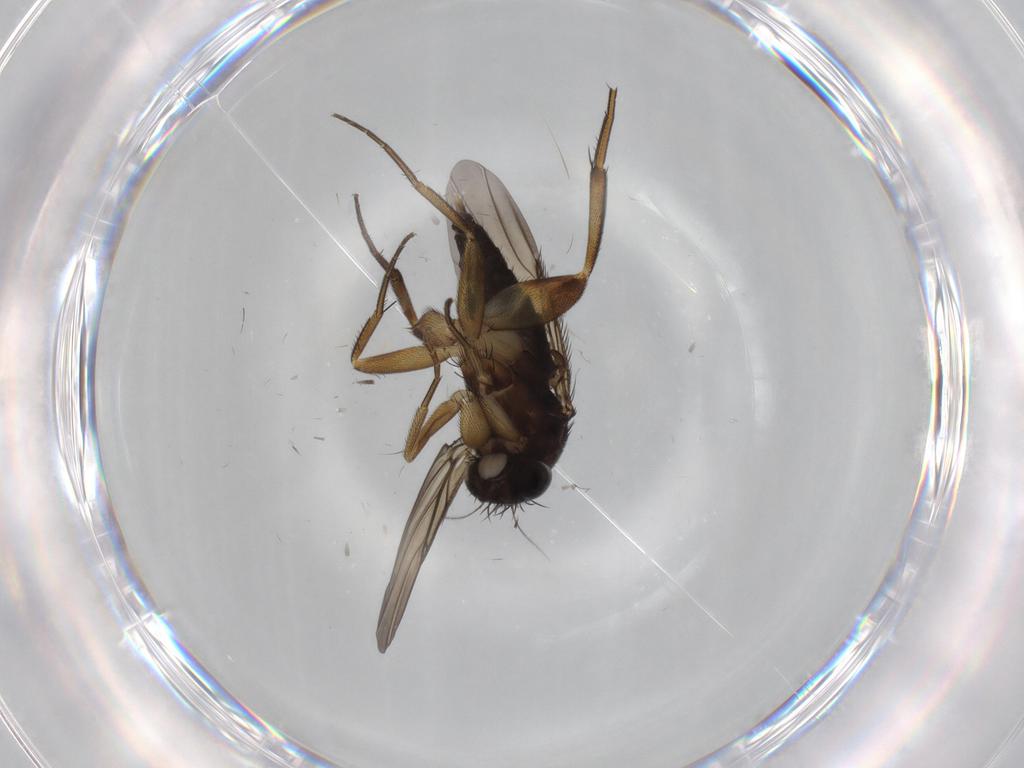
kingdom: Animalia
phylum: Arthropoda
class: Insecta
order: Diptera
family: Phoridae
